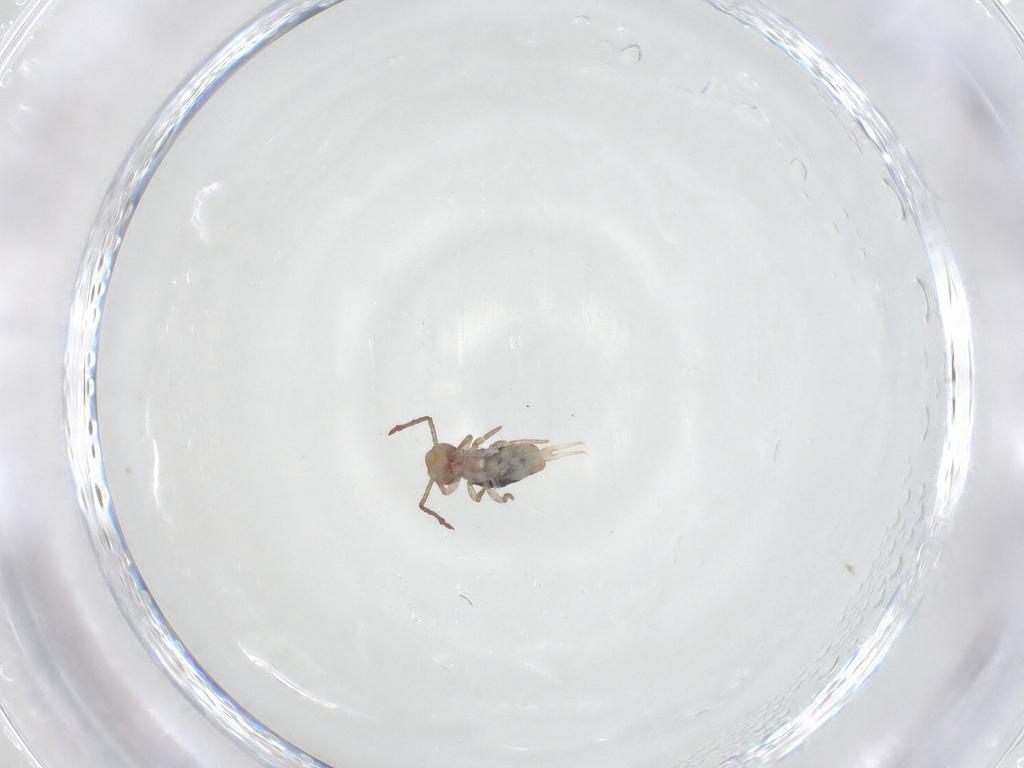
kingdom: Animalia
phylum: Arthropoda
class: Collembola
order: Symphypleona
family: Dicyrtomidae
